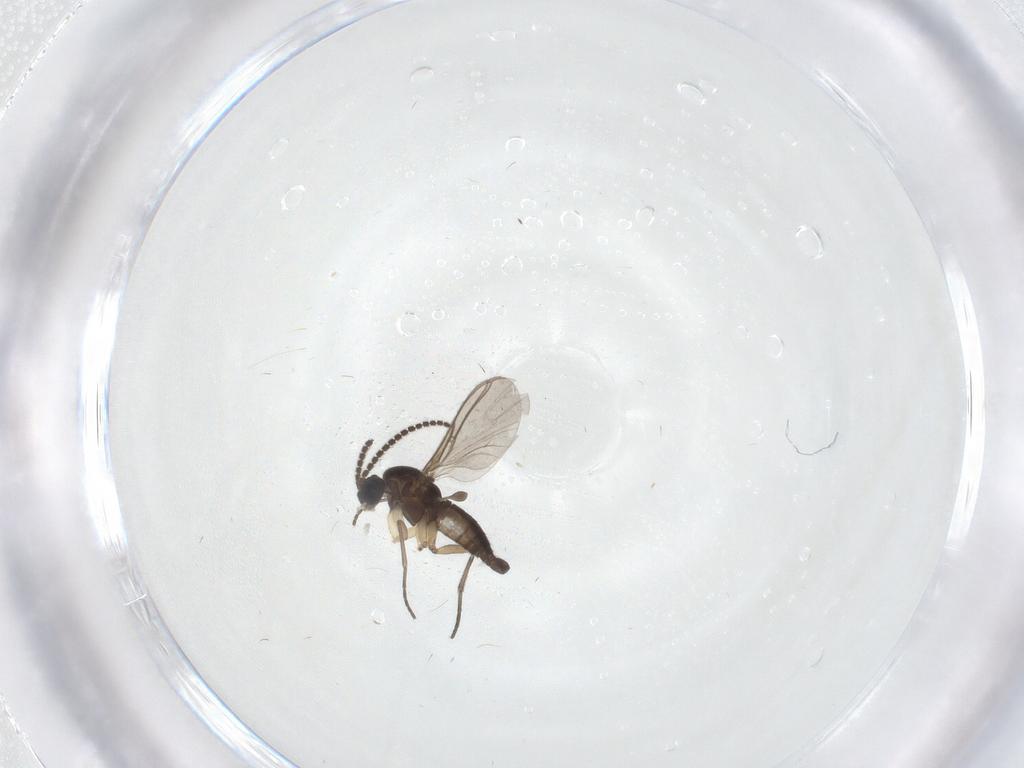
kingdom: Animalia
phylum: Arthropoda
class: Insecta
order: Diptera
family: Sciaridae
